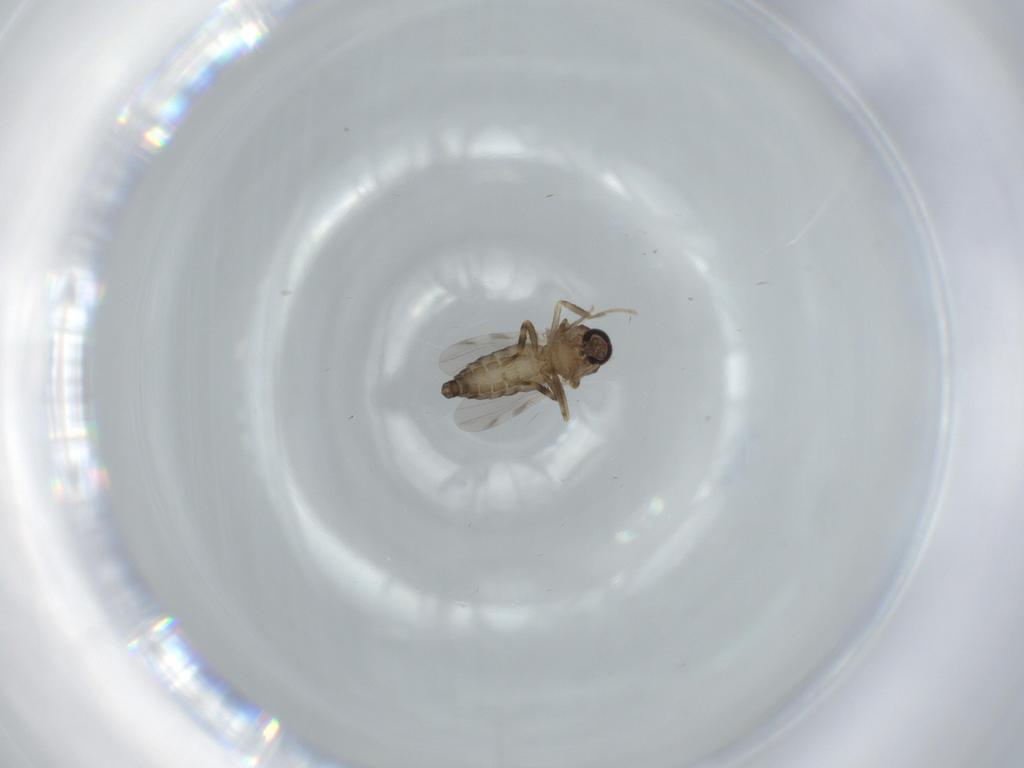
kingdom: Animalia
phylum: Arthropoda
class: Insecta
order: Diptera
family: Ceratopogonidae
